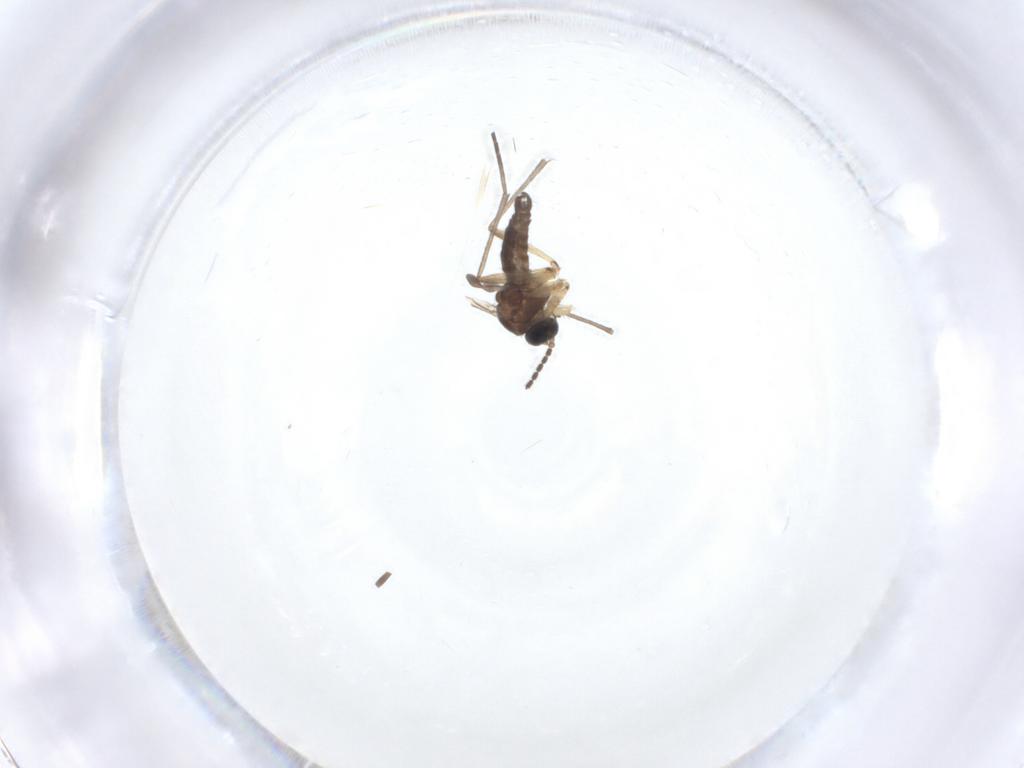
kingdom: Animalia
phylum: Arthropoda
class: Insecta
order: Diptera
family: Sciaridae
